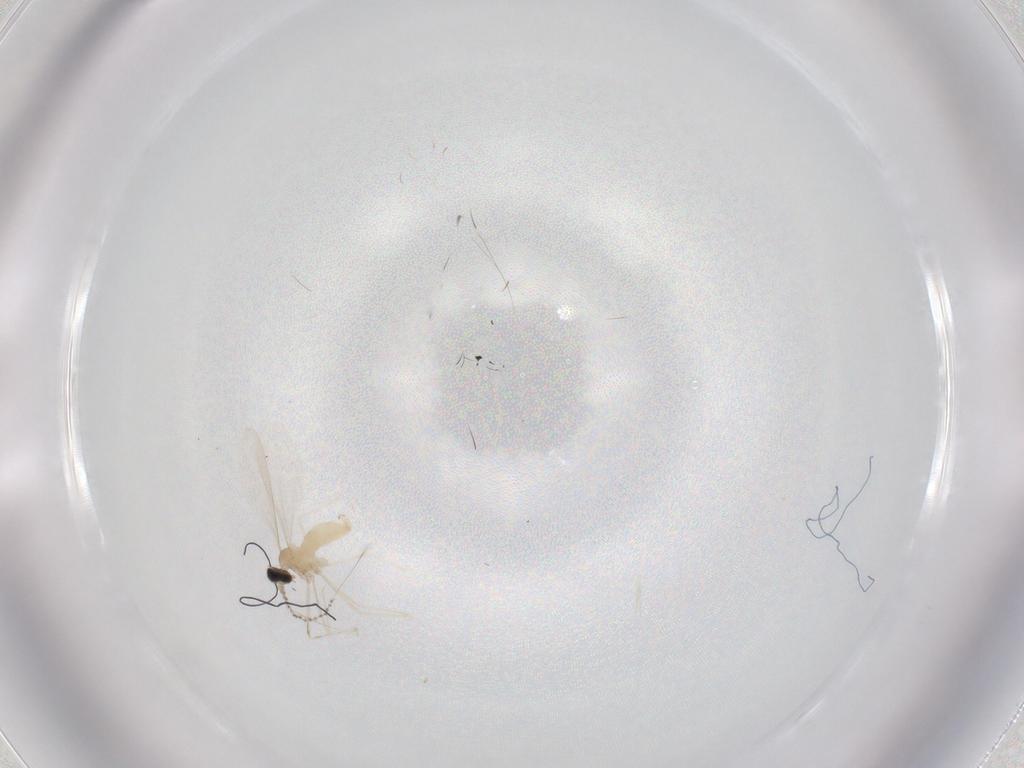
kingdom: Animalia
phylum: Arthropoda
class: Insecta
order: Diptera
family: Cecidomyiidae
